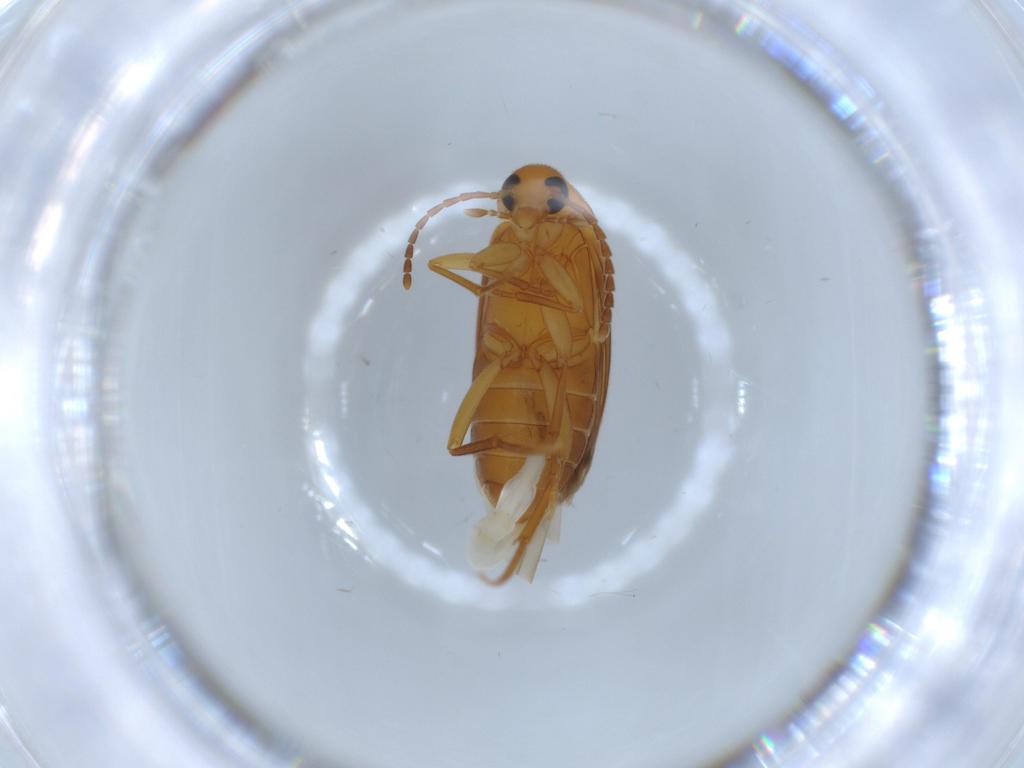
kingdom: Animalia
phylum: Arthropoda
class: Insecta
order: Coleoptera
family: Scraptiidae
